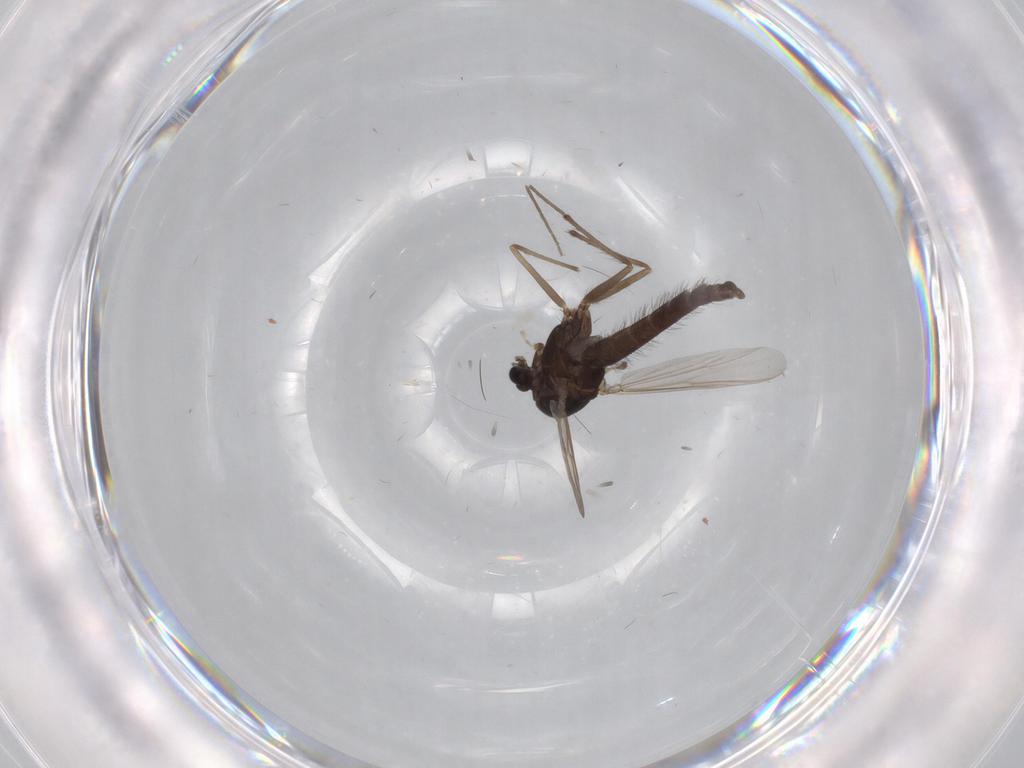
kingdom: Animalia
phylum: Arthropoda
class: Insecta
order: Diptera
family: Chironomidae
